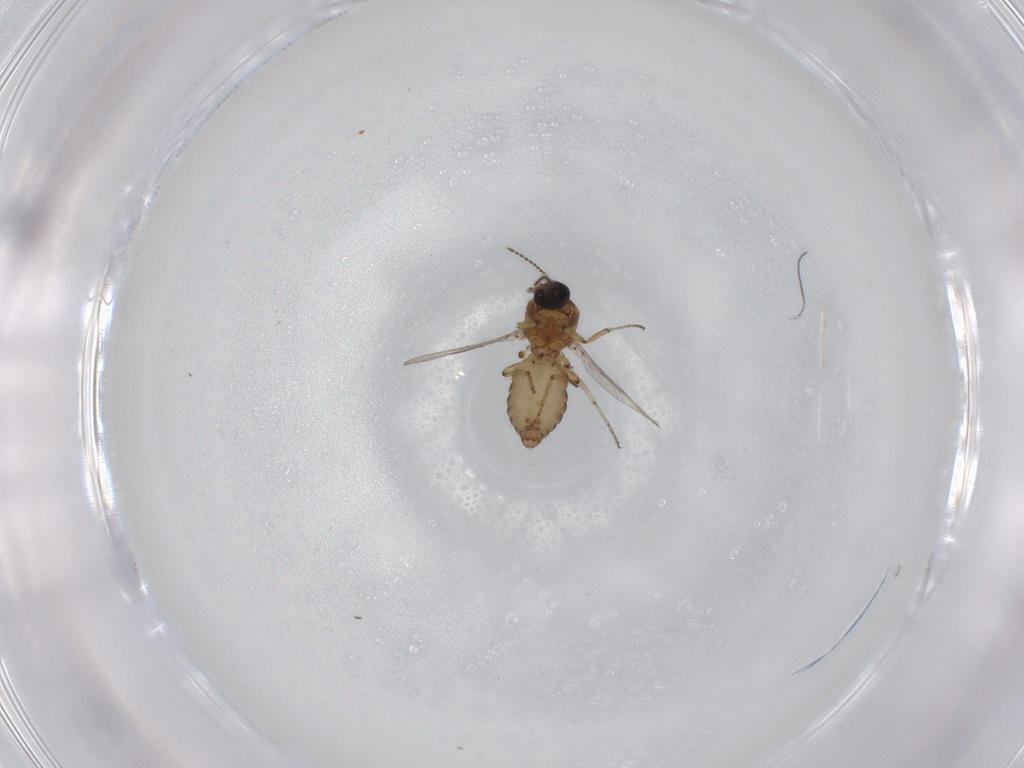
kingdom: Animalia
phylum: Arthropoda
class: Insecta
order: Diptera
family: Ceratopogonidae
